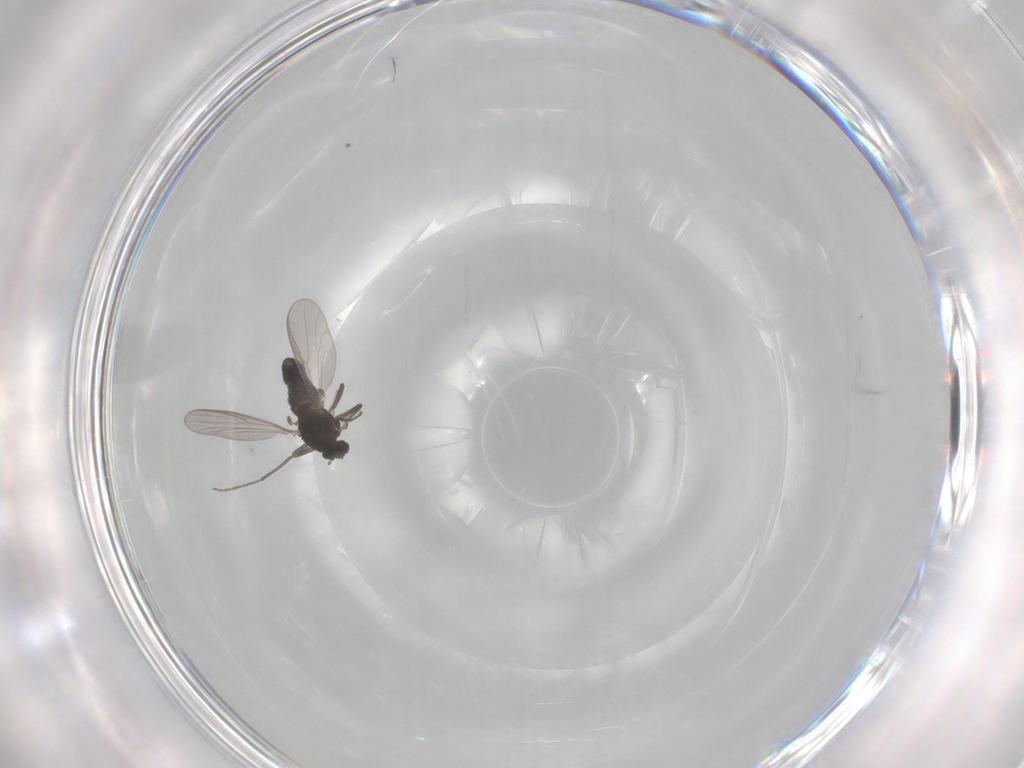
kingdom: Animalia
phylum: Arthropoda
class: Insecta
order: Diptera
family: Chironomidae
